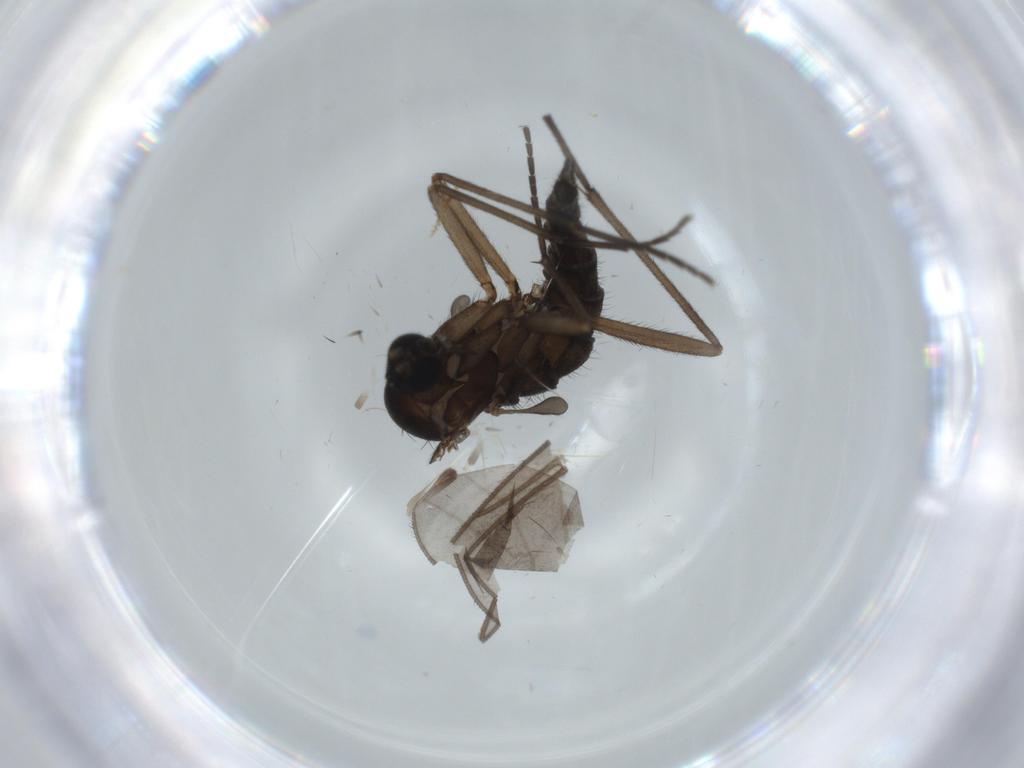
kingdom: Animalia
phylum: Arthropoda
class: Insecta
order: Diptera
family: Sciaridae
